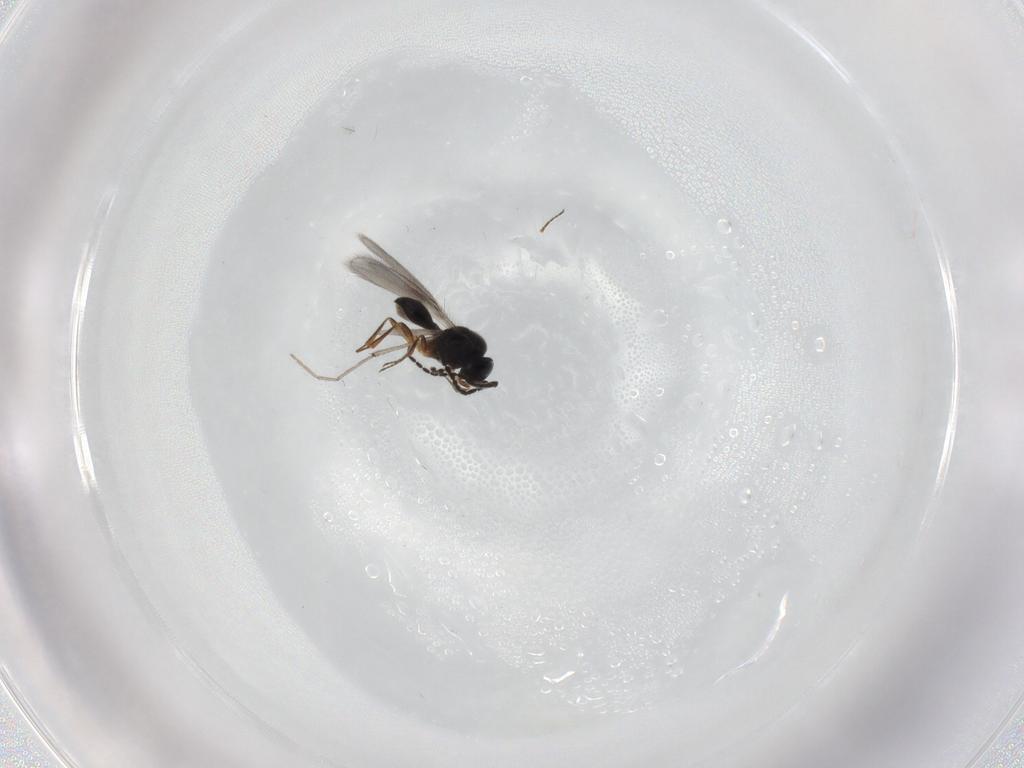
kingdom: Animalia
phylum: Arthropoda
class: Insecta
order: Hymenoptera
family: Scelionidae
